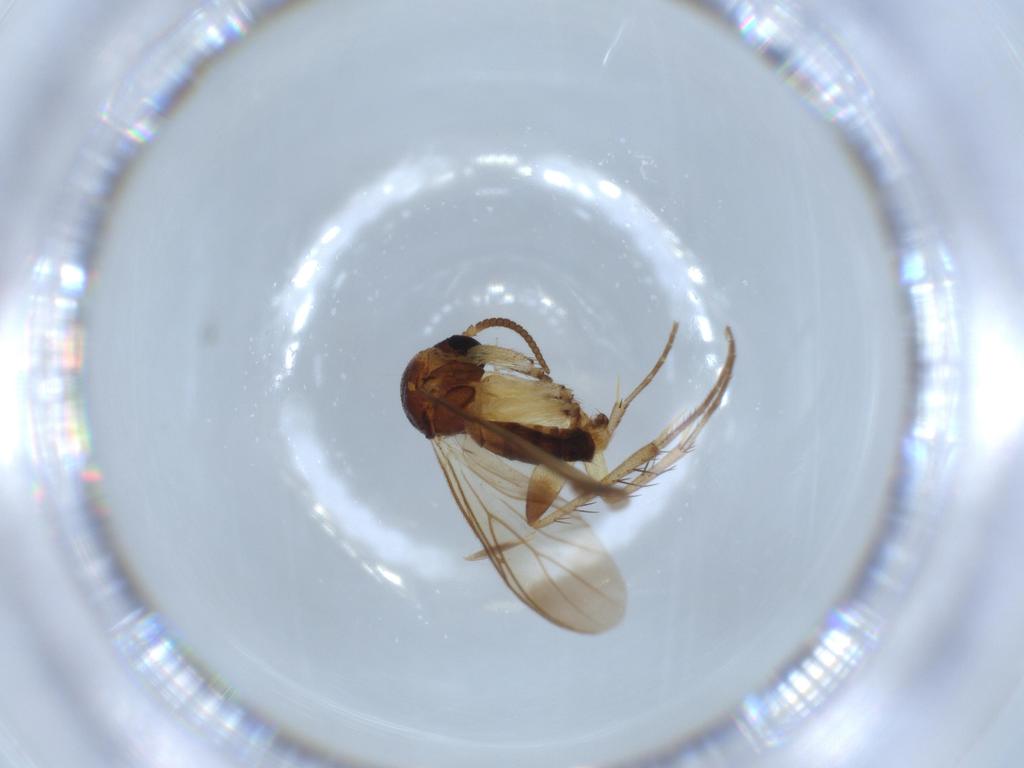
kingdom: Animalia
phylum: Arthropoda
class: Insecta
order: Diptera
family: Mycetophilidae
